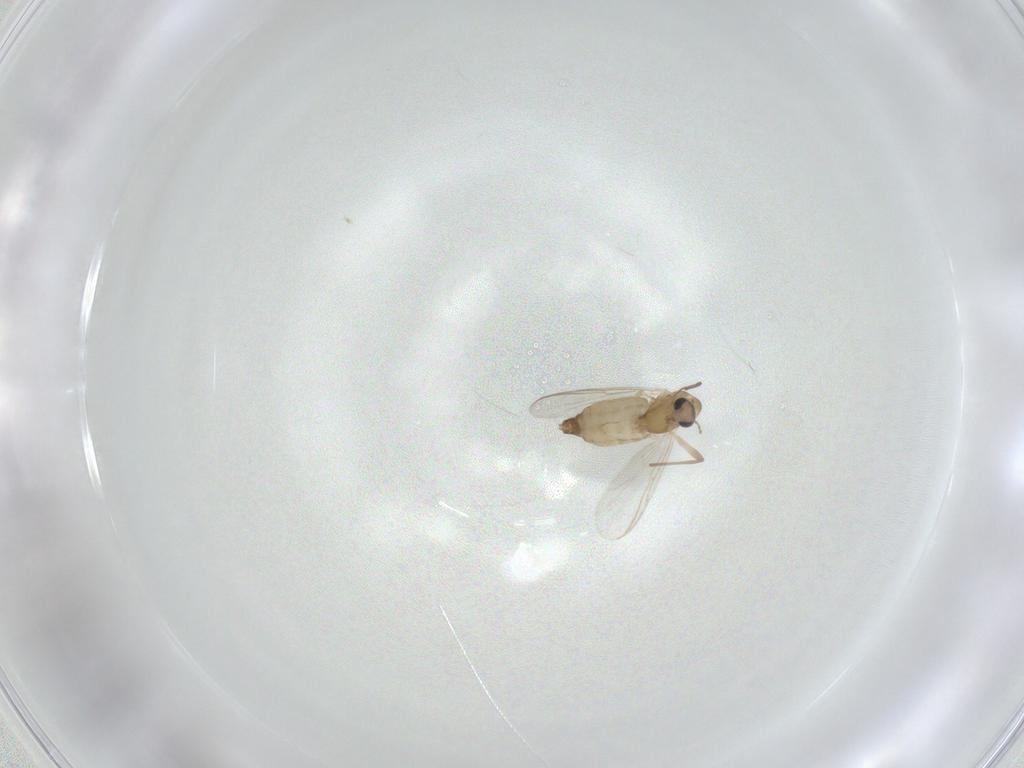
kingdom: Animalia
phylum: Arthropoda
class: Insecta
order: Diptera
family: Chironomidae
